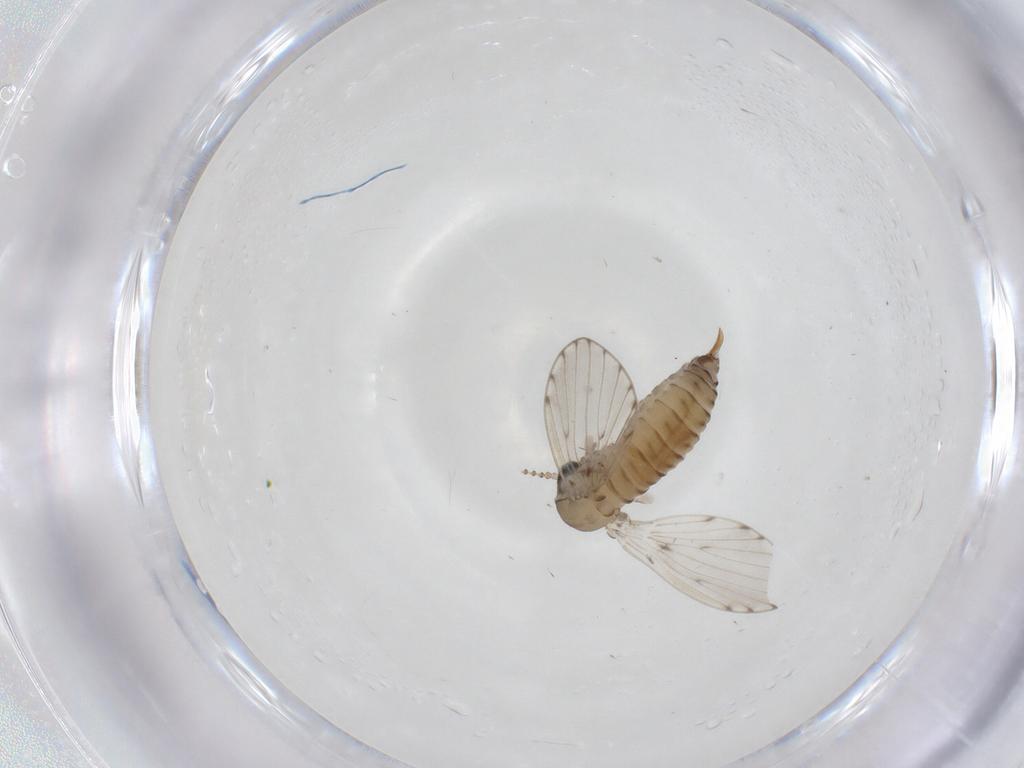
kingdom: Animalia
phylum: Arthropoda
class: Insecta
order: Diptera
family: Psychodidae
